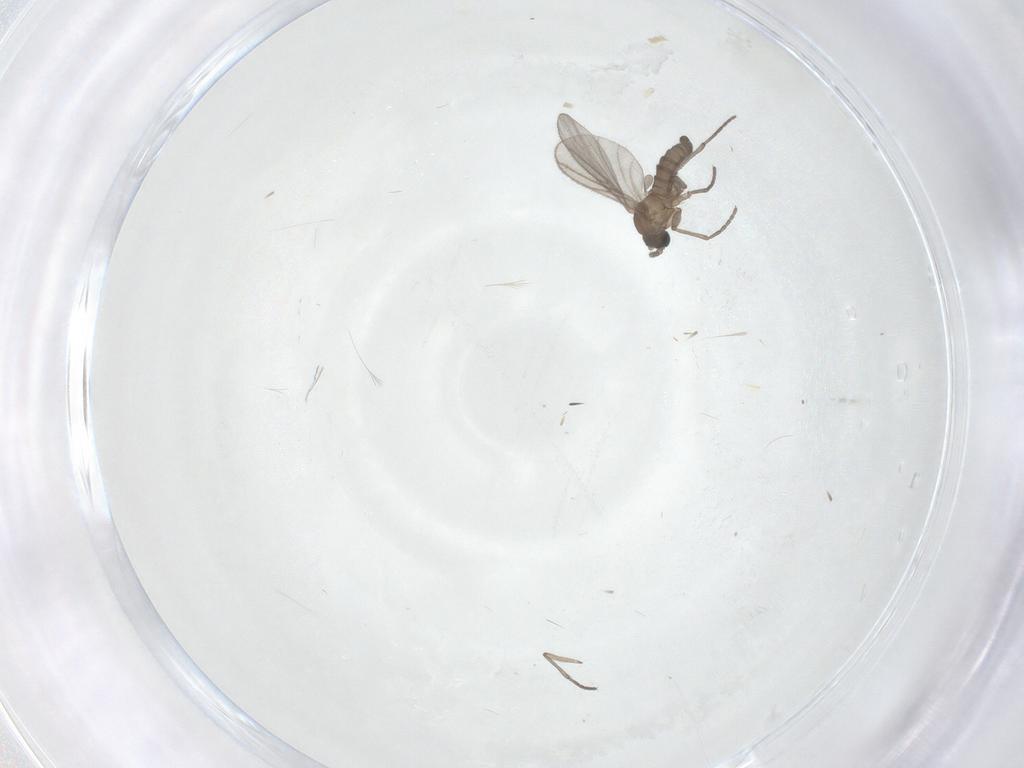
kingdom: Animalia
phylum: Arthropoda
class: Insecta
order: Diptera
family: Sciaridae
